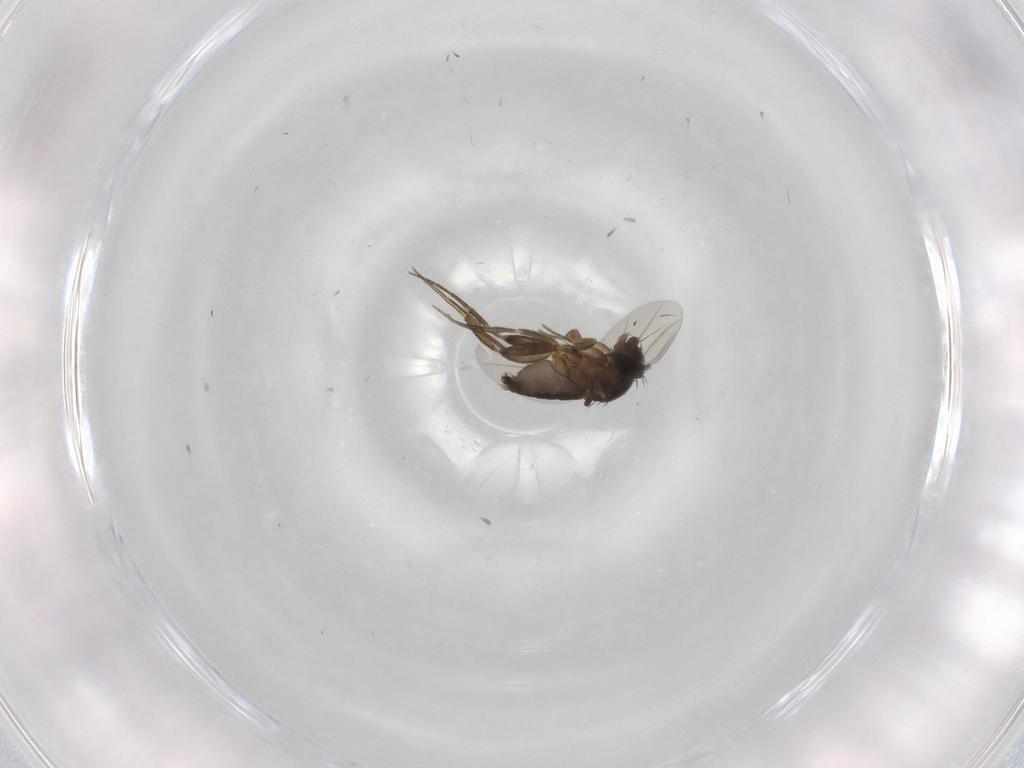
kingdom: Animalia
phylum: Arthropoda
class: Insecta
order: Diptera
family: Phoridae
